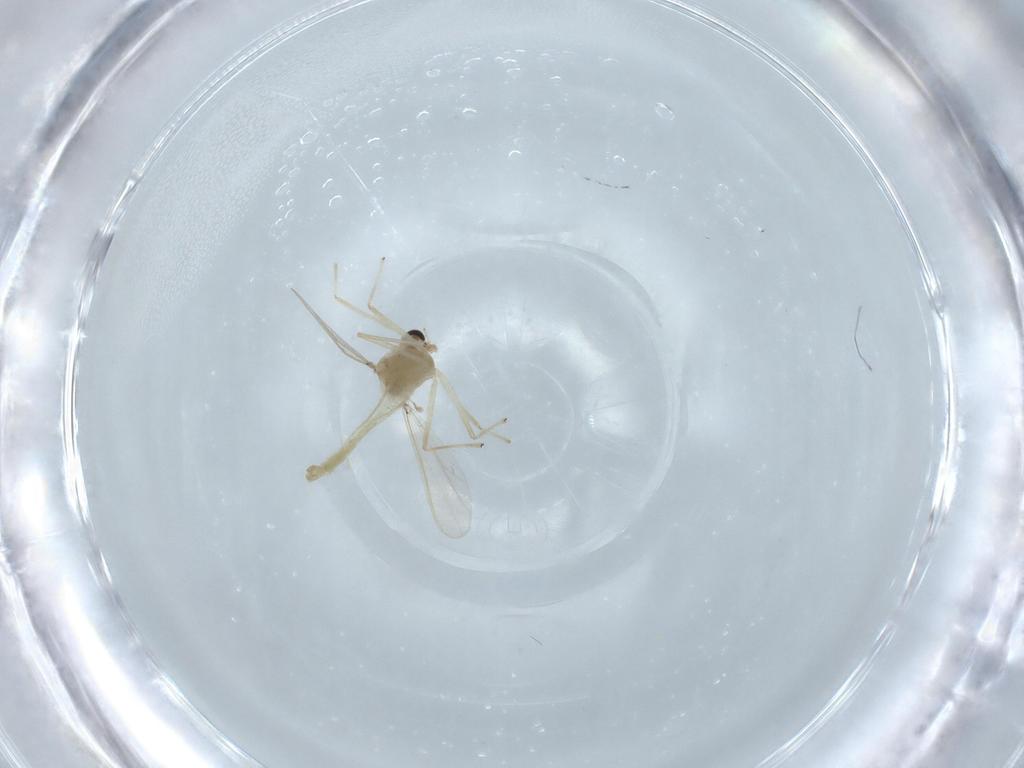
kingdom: Animalia
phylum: Arthropoda
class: Insecta
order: Diptera
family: Chironomidae
